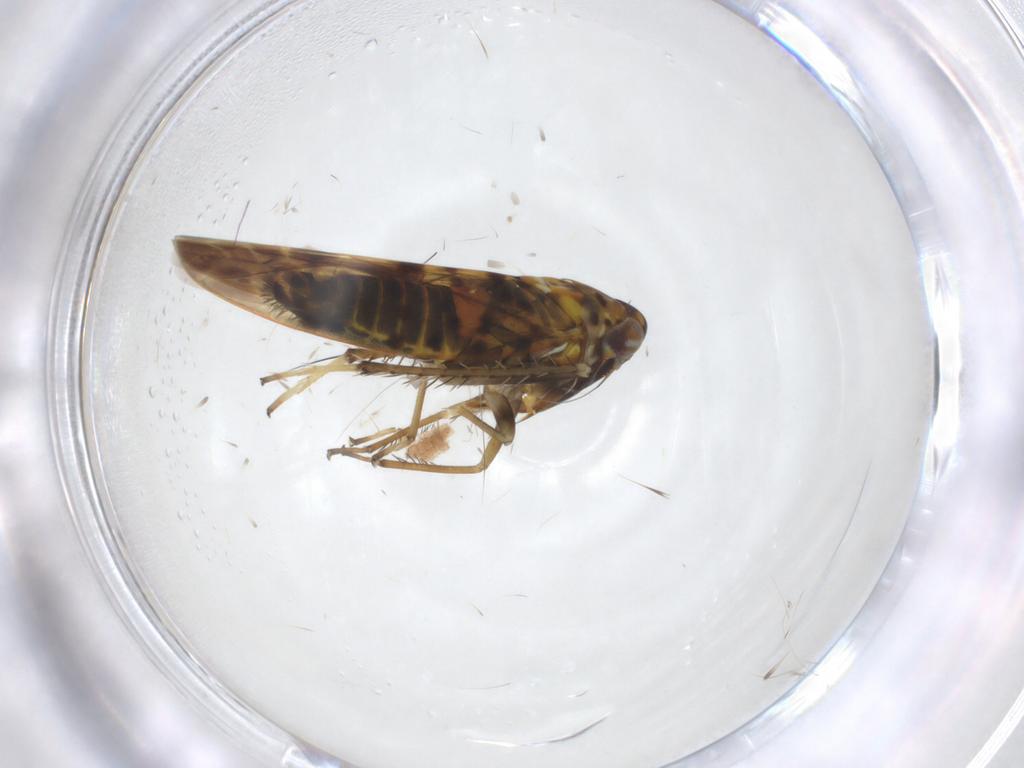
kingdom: Animalia
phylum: Arthropoda
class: Insecta
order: Hemiptera
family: Cicadellidae
